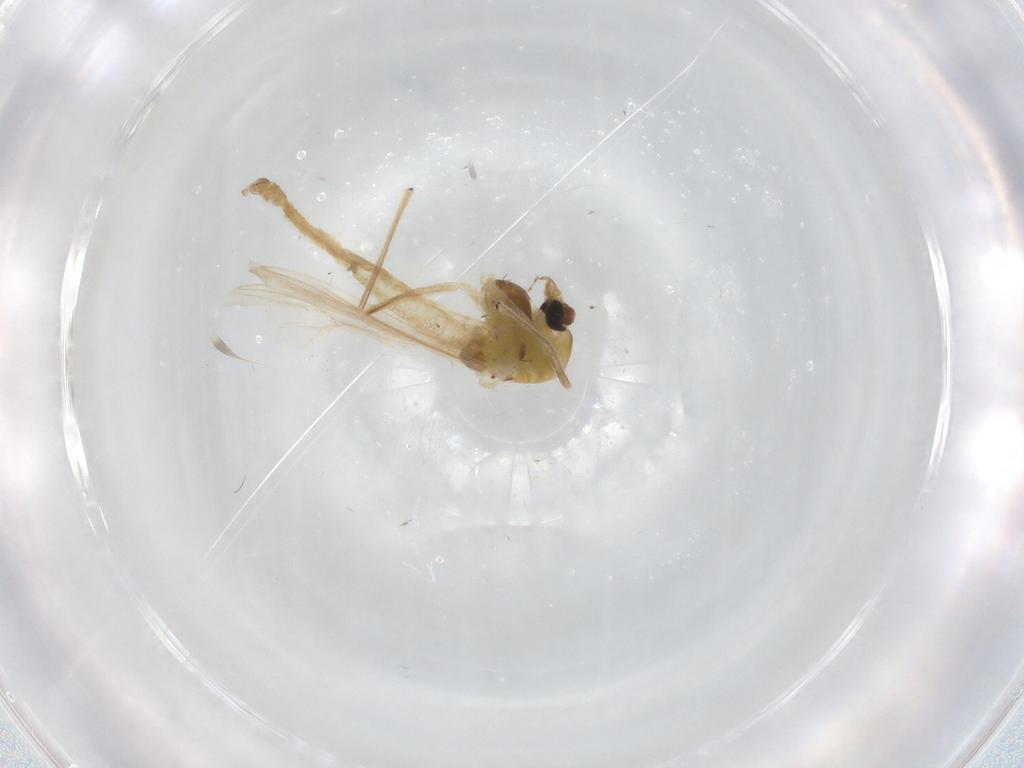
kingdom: Animalia
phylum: Arthropoda
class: Insecta
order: Diptera
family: Chironomidae
